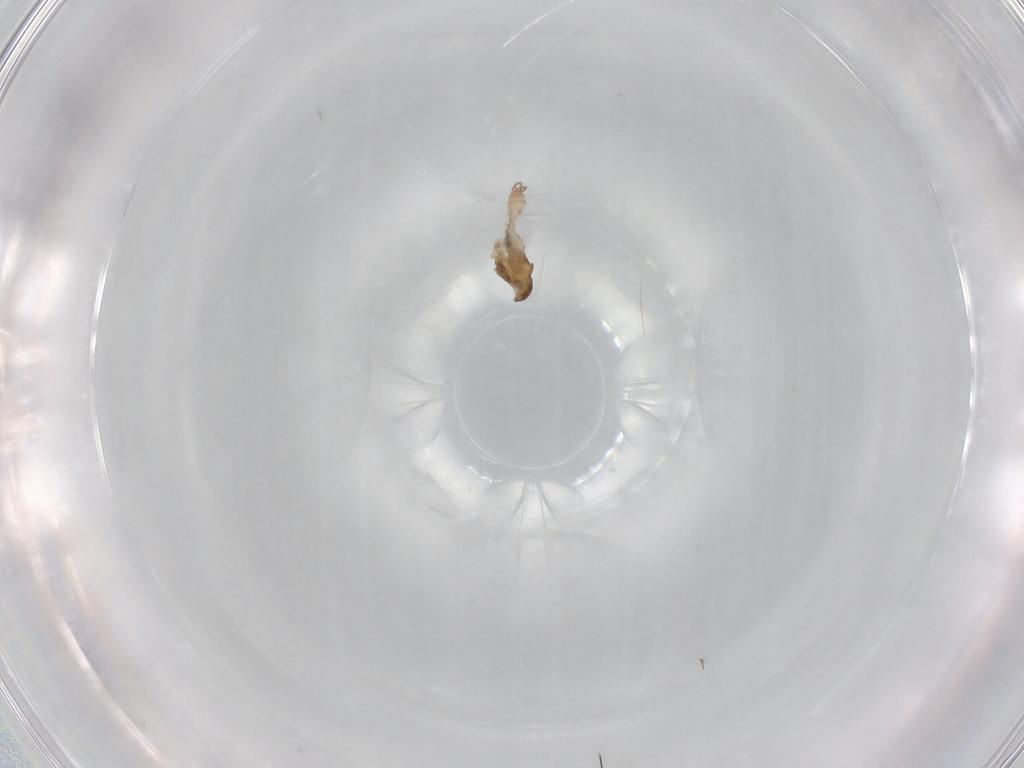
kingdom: Animalia
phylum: Arthropoda
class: Insecta
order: Diptera
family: Cecidomyiidae
